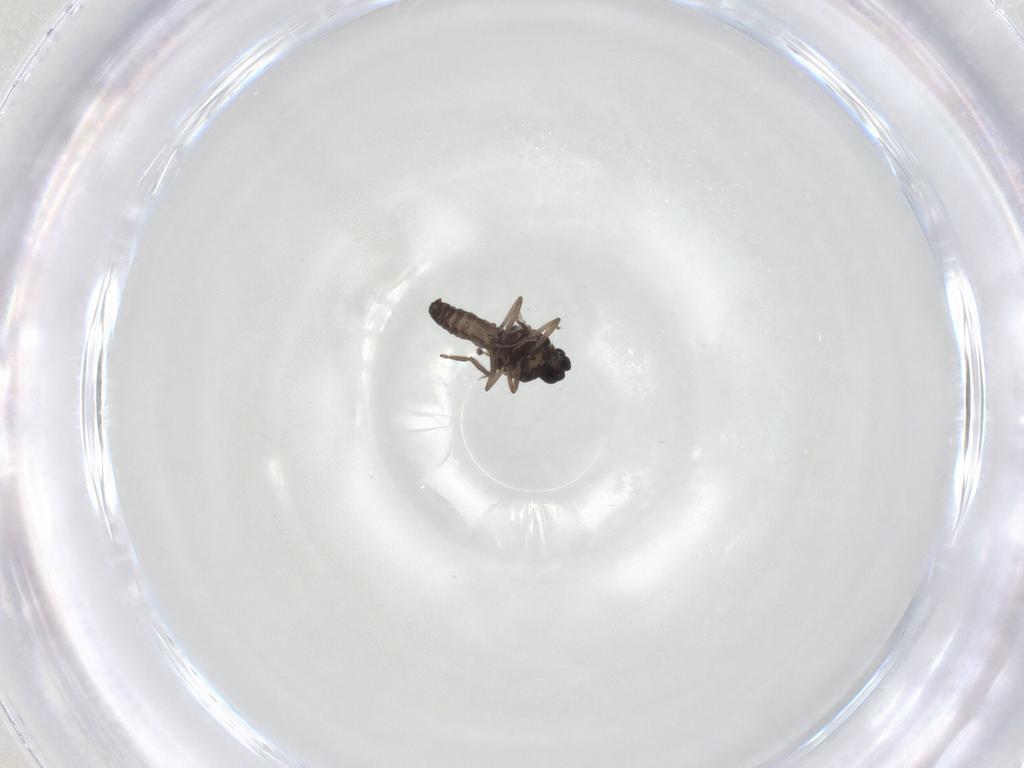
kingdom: Animalia
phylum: Arthropoda
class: Insecta
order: Diptera
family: Ceratopogonidae
